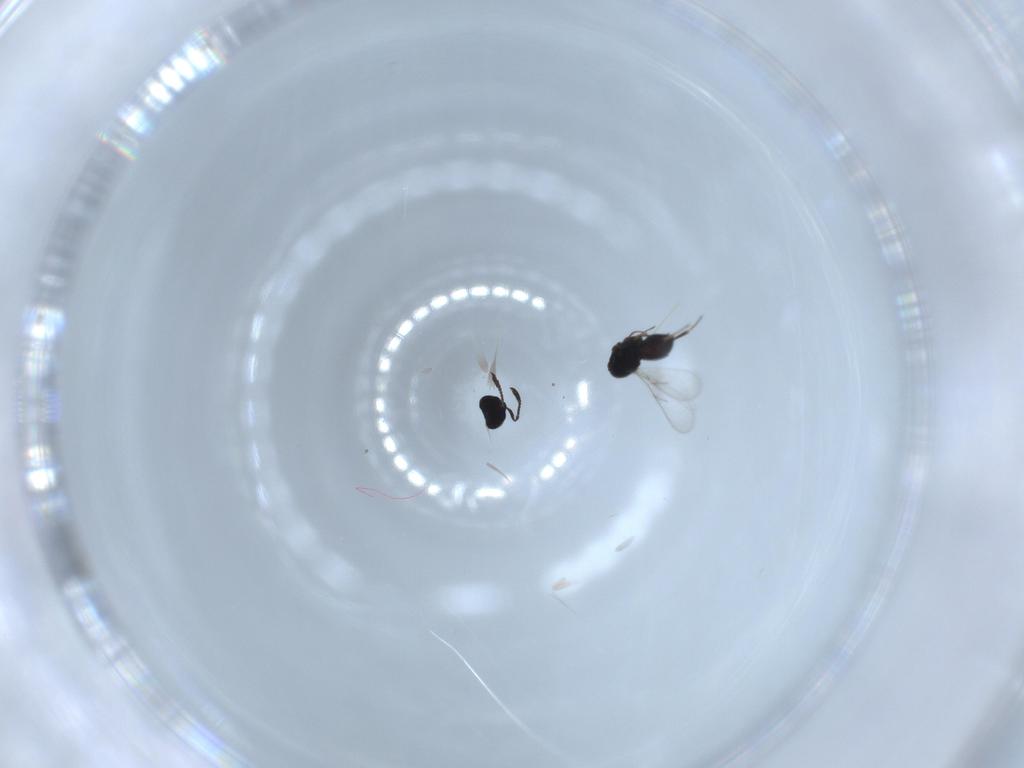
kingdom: Animalia
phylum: Arthropoda
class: Insecta
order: Hymenoptera
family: Scelionidae
